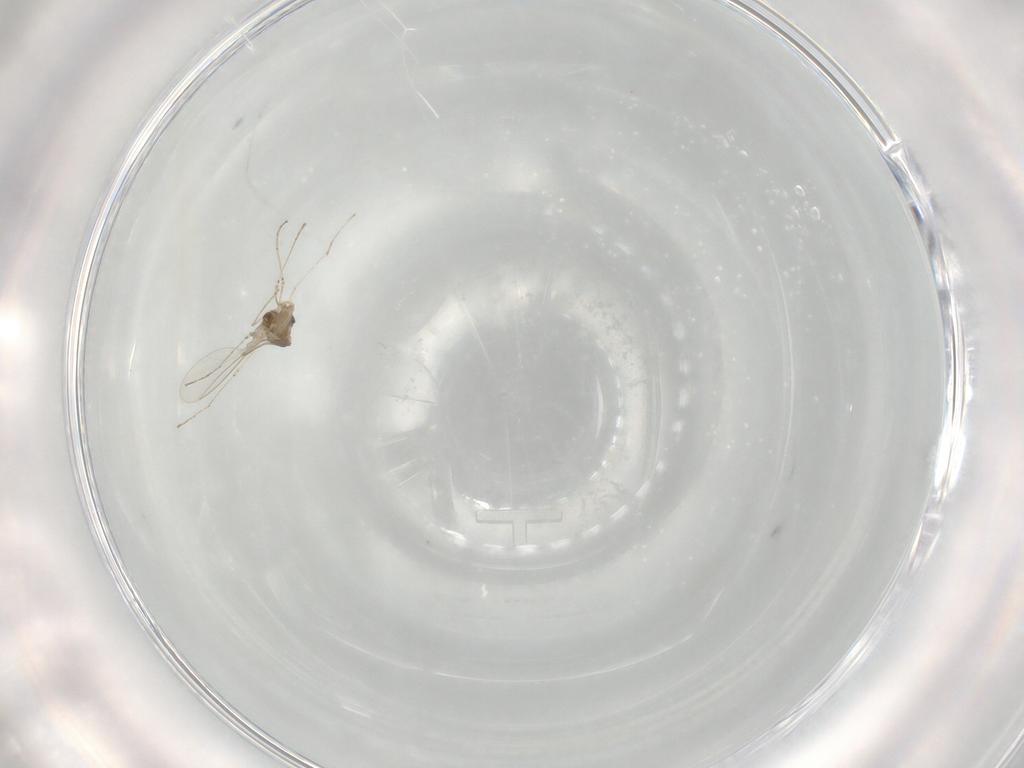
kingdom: Animalia
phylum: Arthropoda
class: Insecta
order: Diptera
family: Cecidomyiidae
